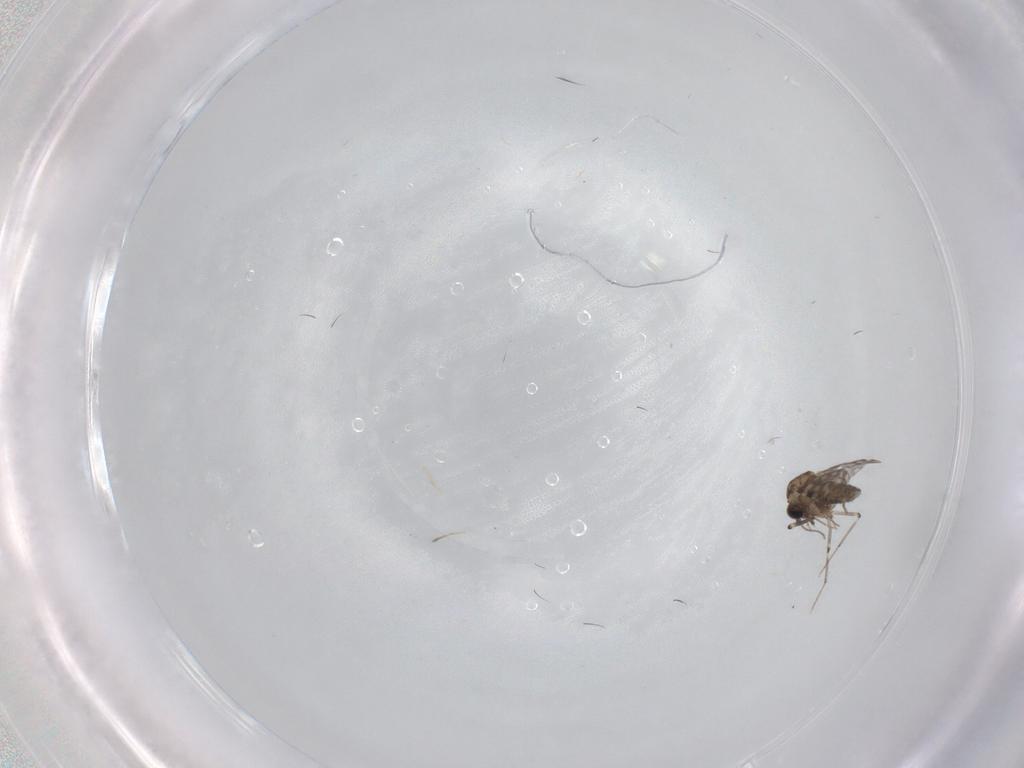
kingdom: Animalia
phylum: Arthropoda
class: Insecta
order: Diptera
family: Ceratopogonidae
